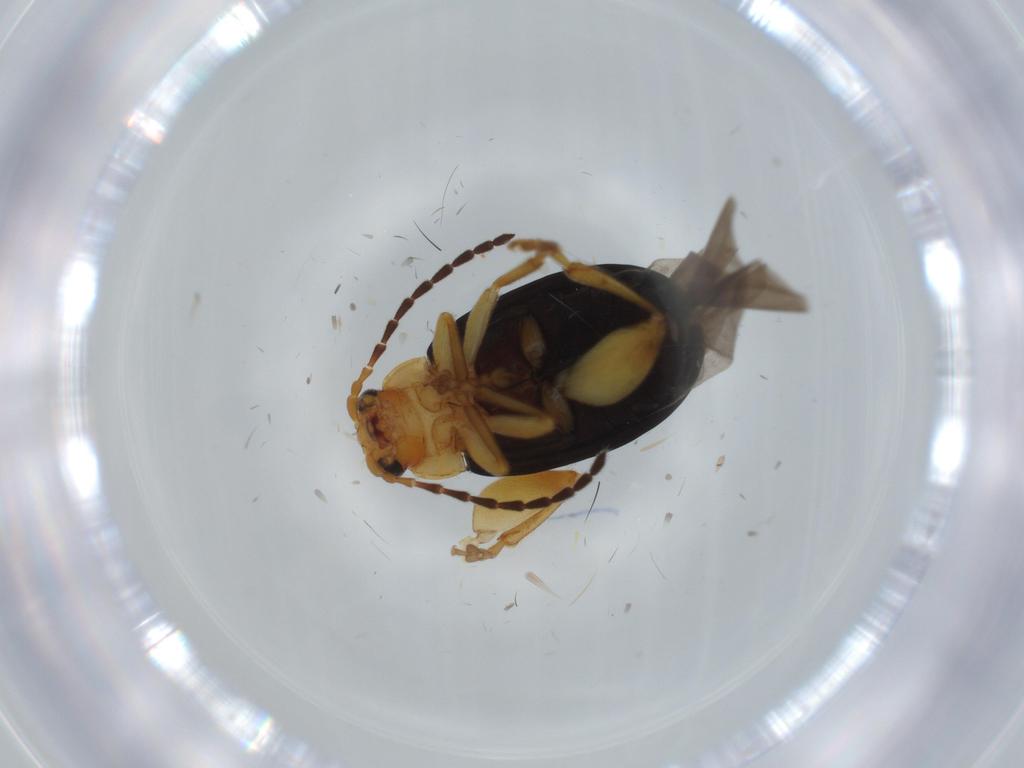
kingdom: Animalia
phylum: Arthropoda
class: Insecta
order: Coleoptera
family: Chrysomelidae
